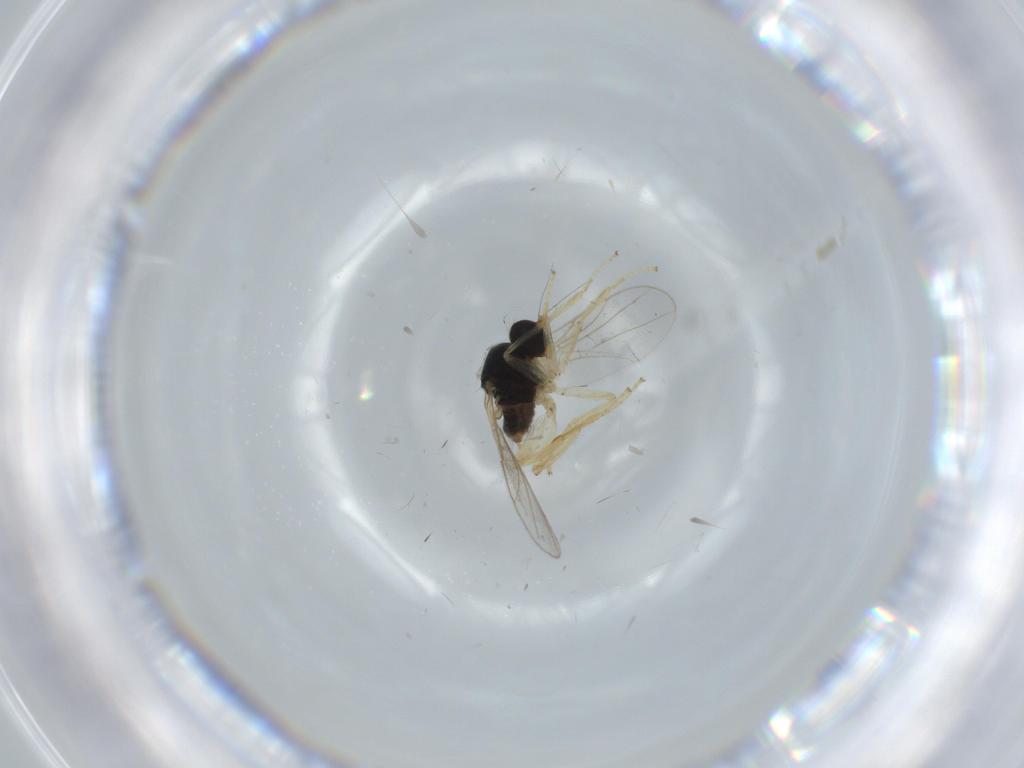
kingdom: Animalia
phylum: Arthropoda
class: Insecta
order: Diptera
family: Hybotidae
